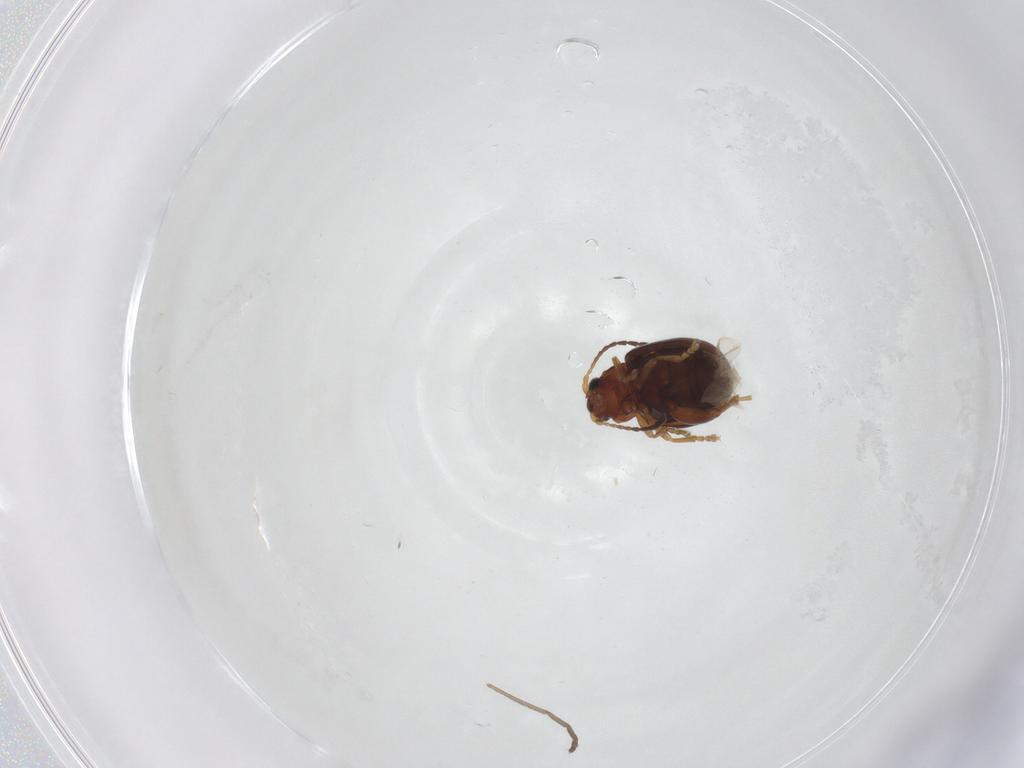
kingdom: Animalia
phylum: Arthropoda
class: Insecta
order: Coleoptera
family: Chrysomelidae
